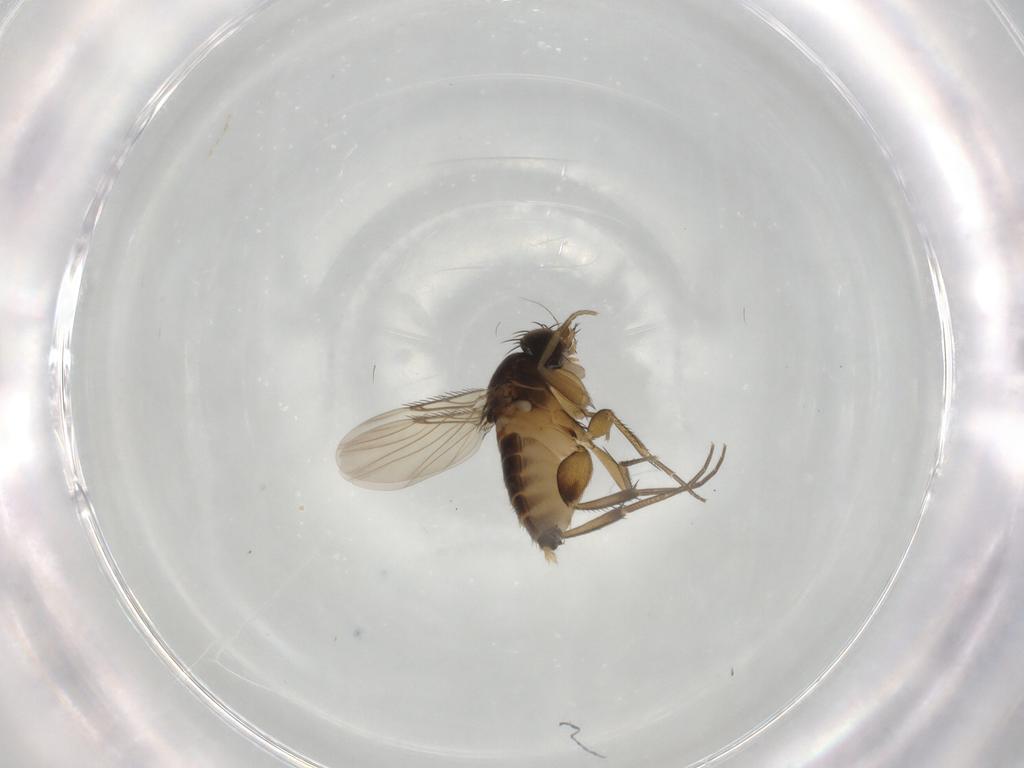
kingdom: Animalia
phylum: Arthropoda
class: Insecta
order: Diptera
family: Phoridae
